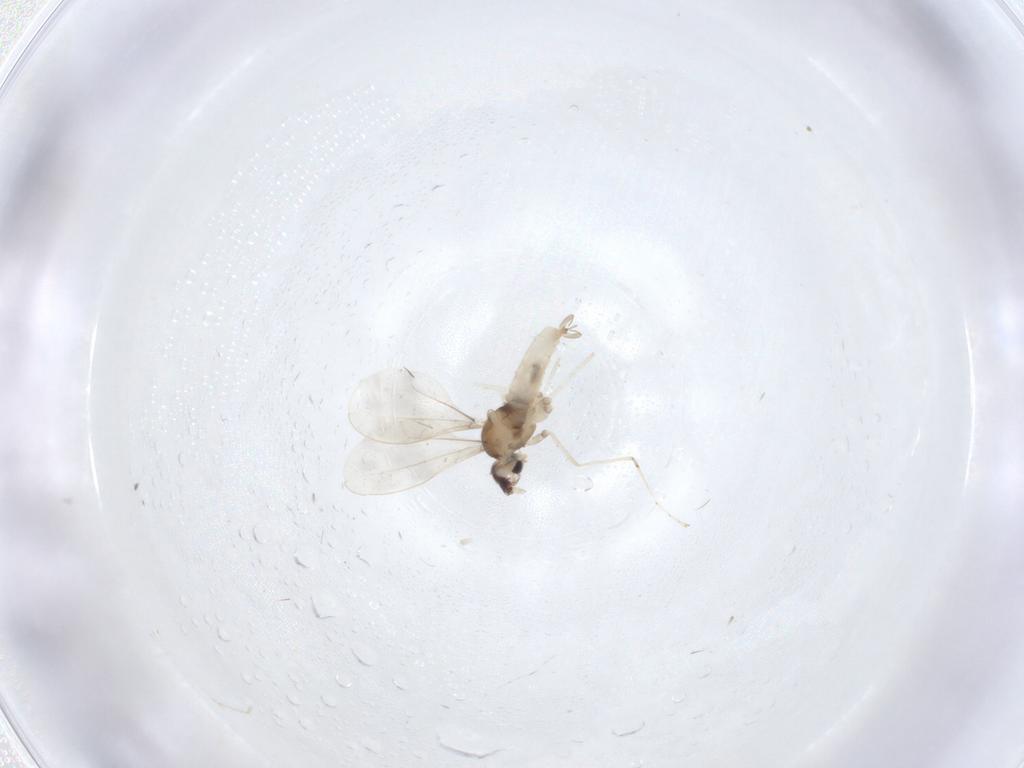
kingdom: Animalia
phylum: Arthropoda
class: Insecta
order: Diptera
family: Cecidomyiidae
